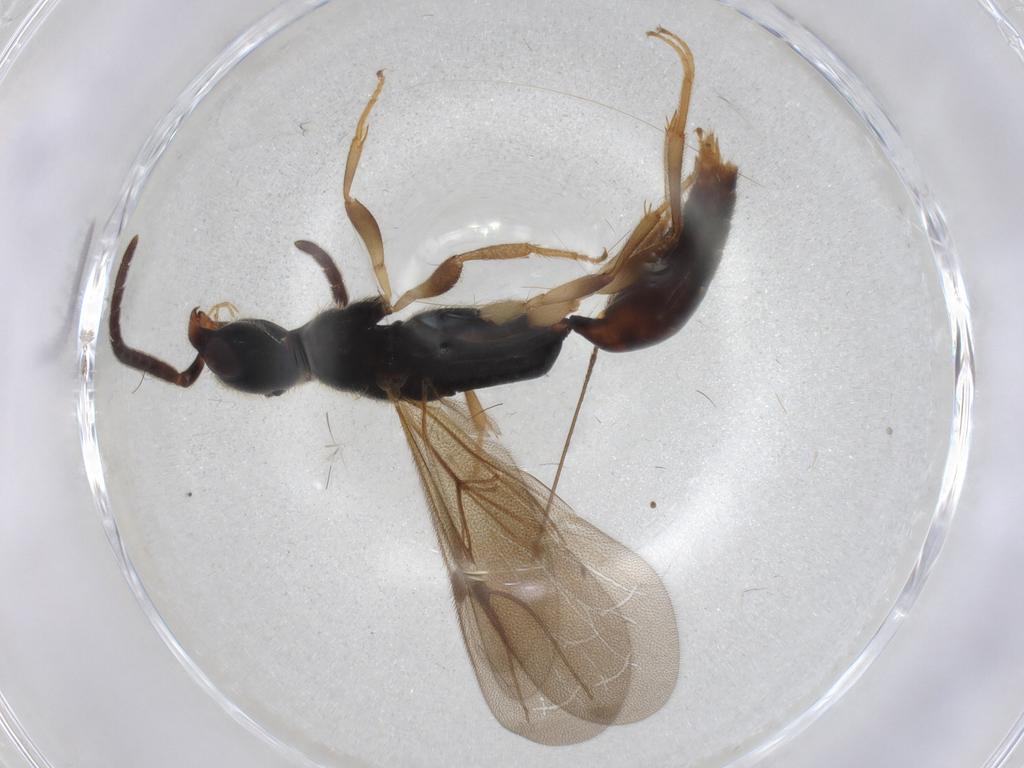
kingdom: Animalia
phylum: Arthropoda
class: Insecta
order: Hymenoptera
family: Bethylidae
